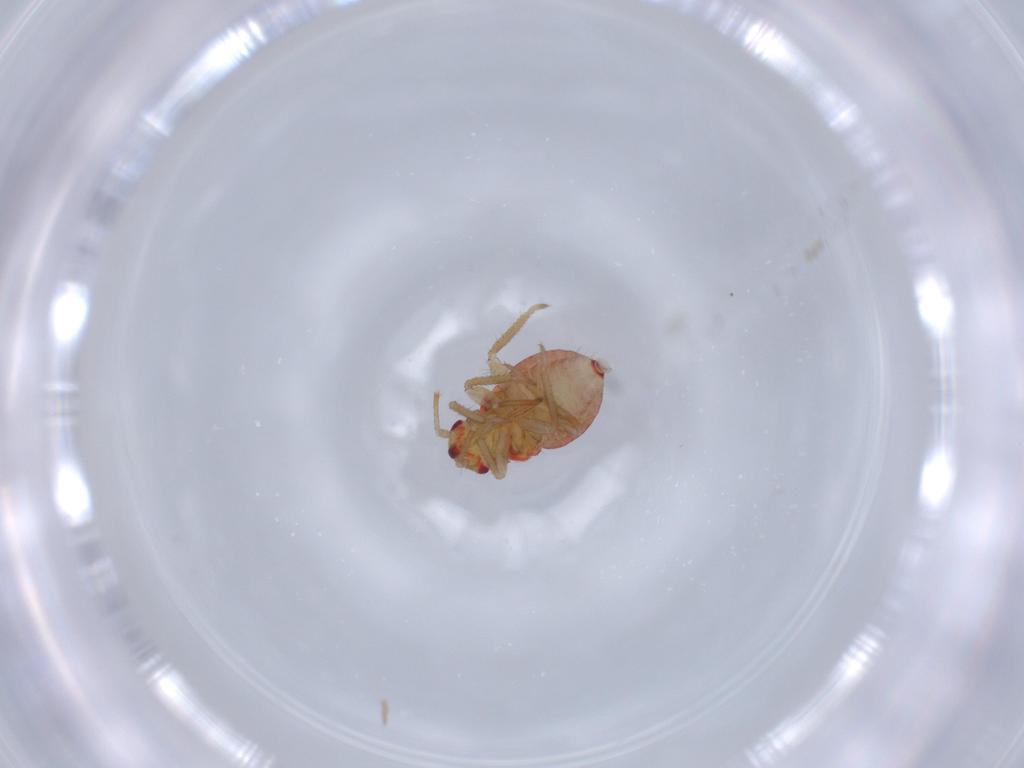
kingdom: Animalia
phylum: Arthropoda
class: Insecta
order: Hemiptera
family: Miridae
